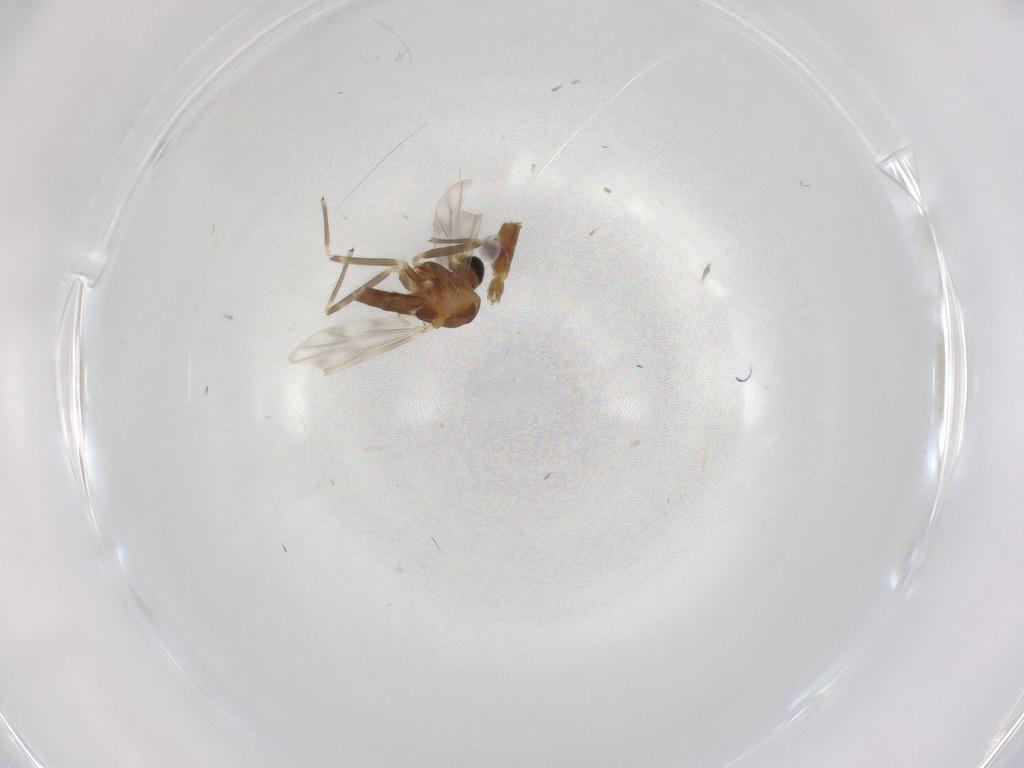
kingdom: Animalia
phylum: Arthropoda
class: Insecta
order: Diptera
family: Chironomidae
